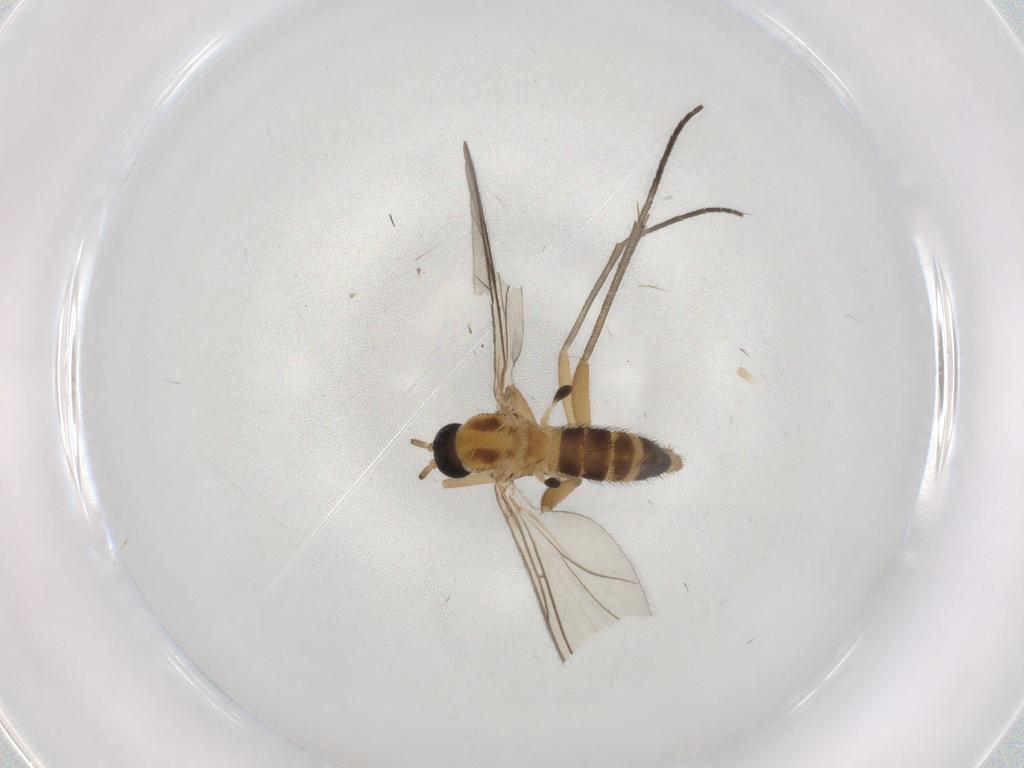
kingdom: Animalia
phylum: Arthropoda
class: Insecta
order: Diptera
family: Sciaridae
